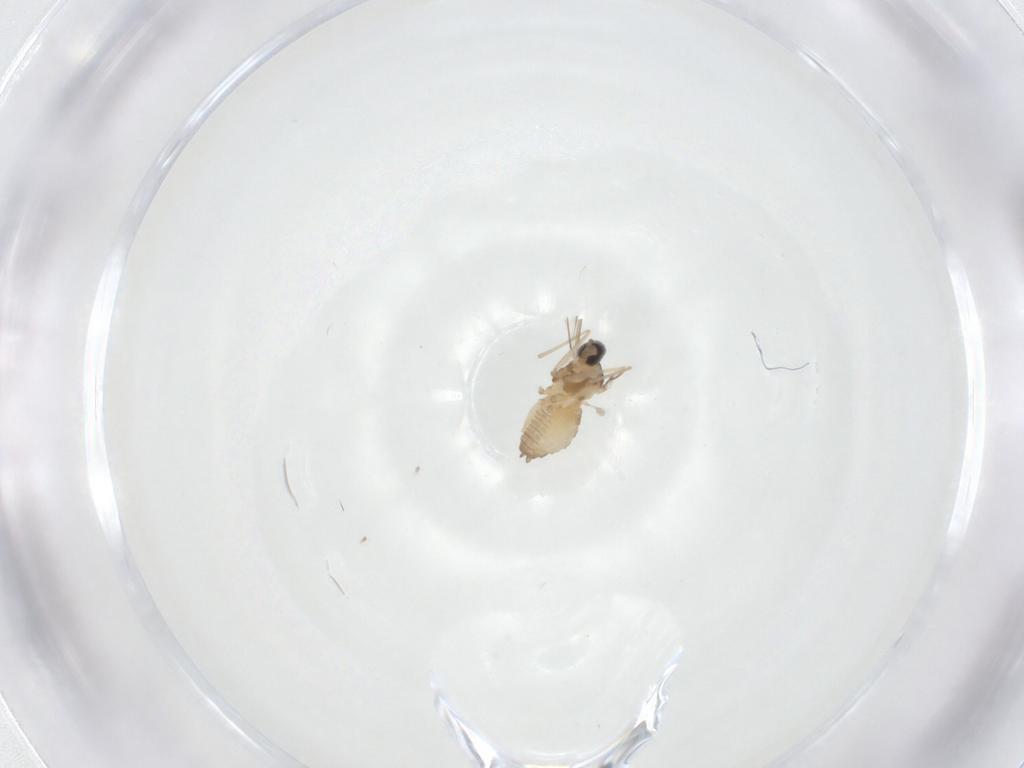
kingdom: Animalia
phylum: Arthropoda
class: Insecta
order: Diptera
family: Cecidomyiidae
